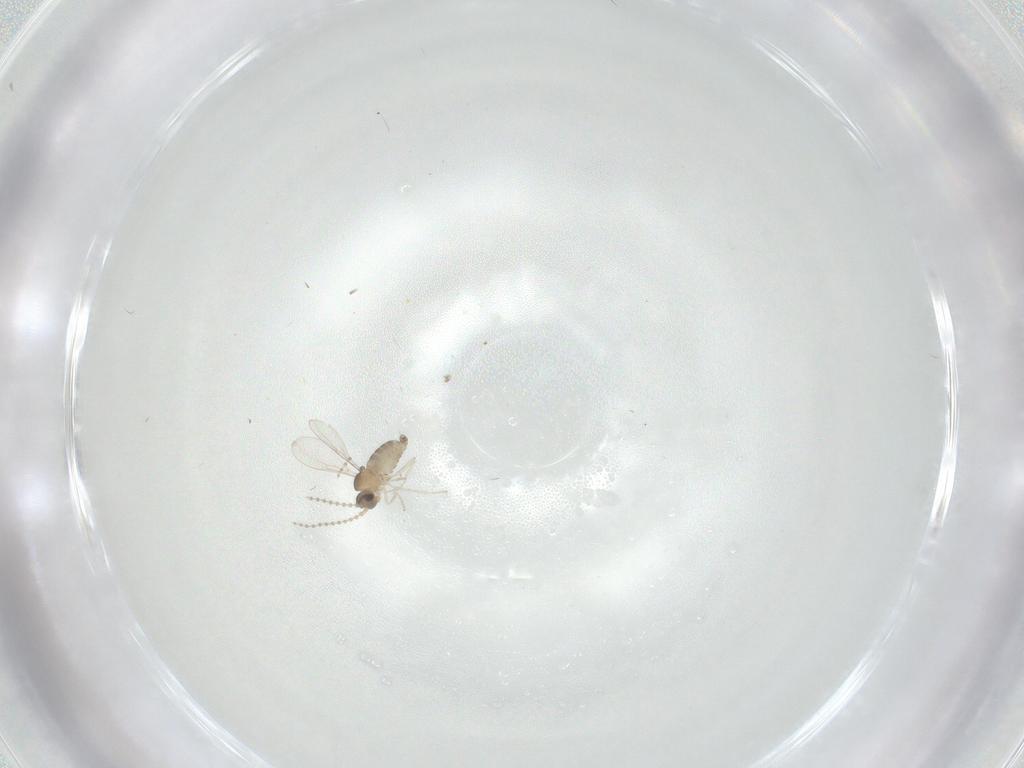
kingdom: Animalia
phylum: Arthropoda
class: Insecta
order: Diptera
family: Cecidomyiidae
